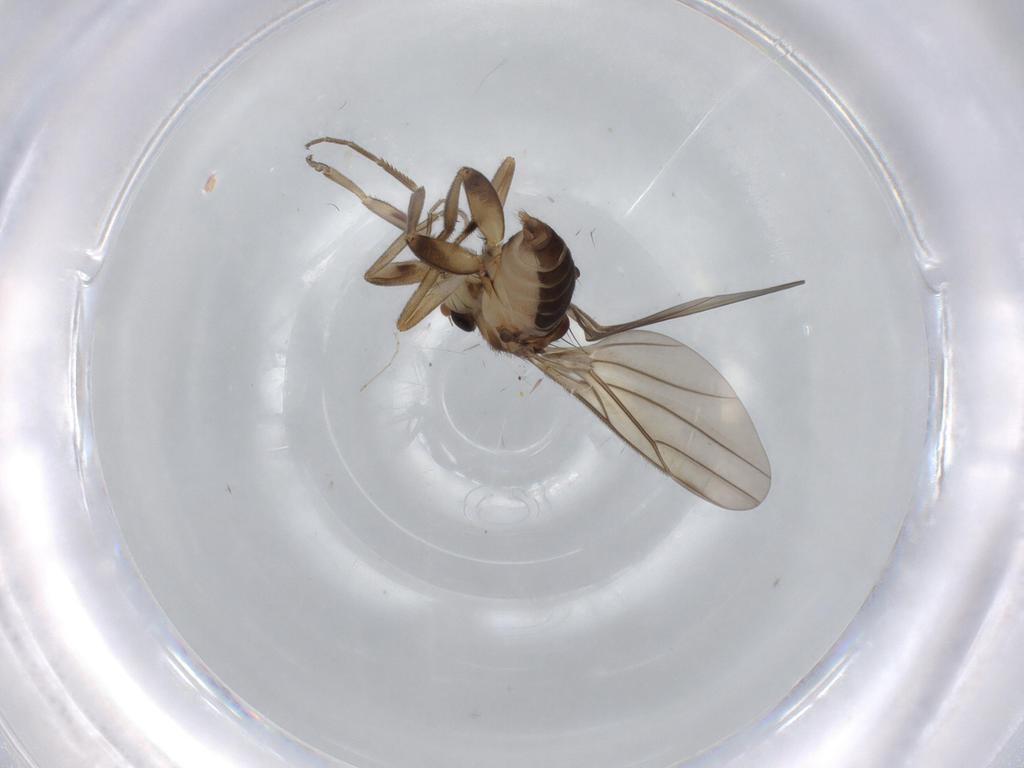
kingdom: Animalia
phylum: Arthropoda
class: Insecta
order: Diptera
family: Phoridae
